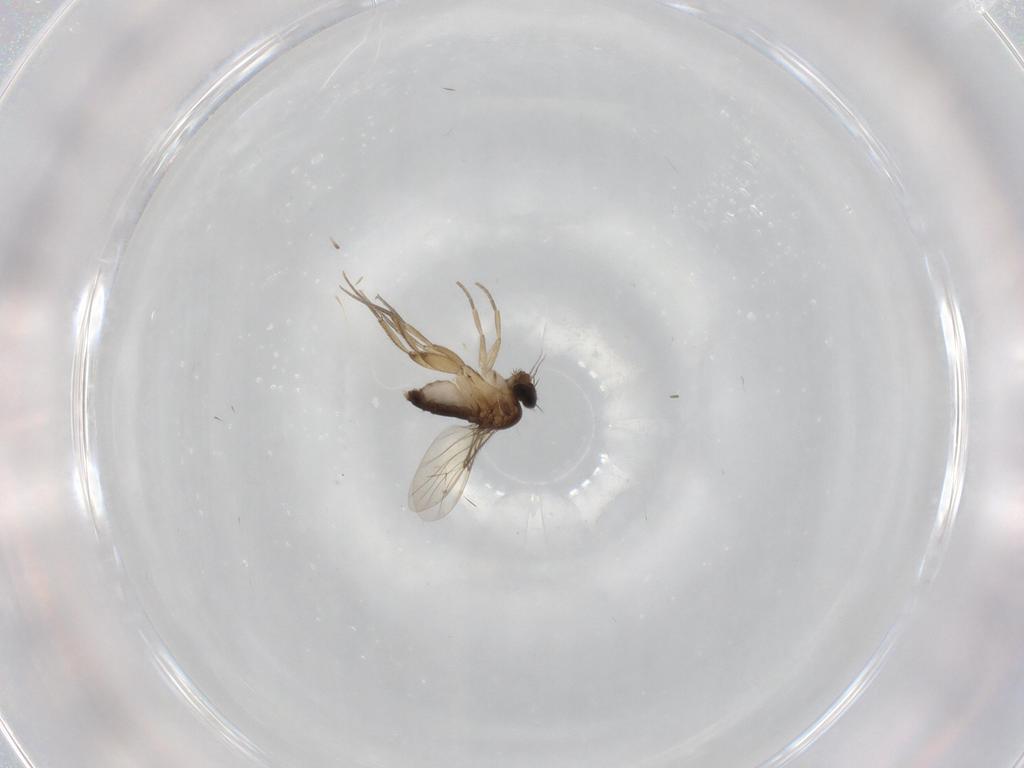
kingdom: Animalia
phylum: Arthropoda
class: Insecta
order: Diptera
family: Phoridae
